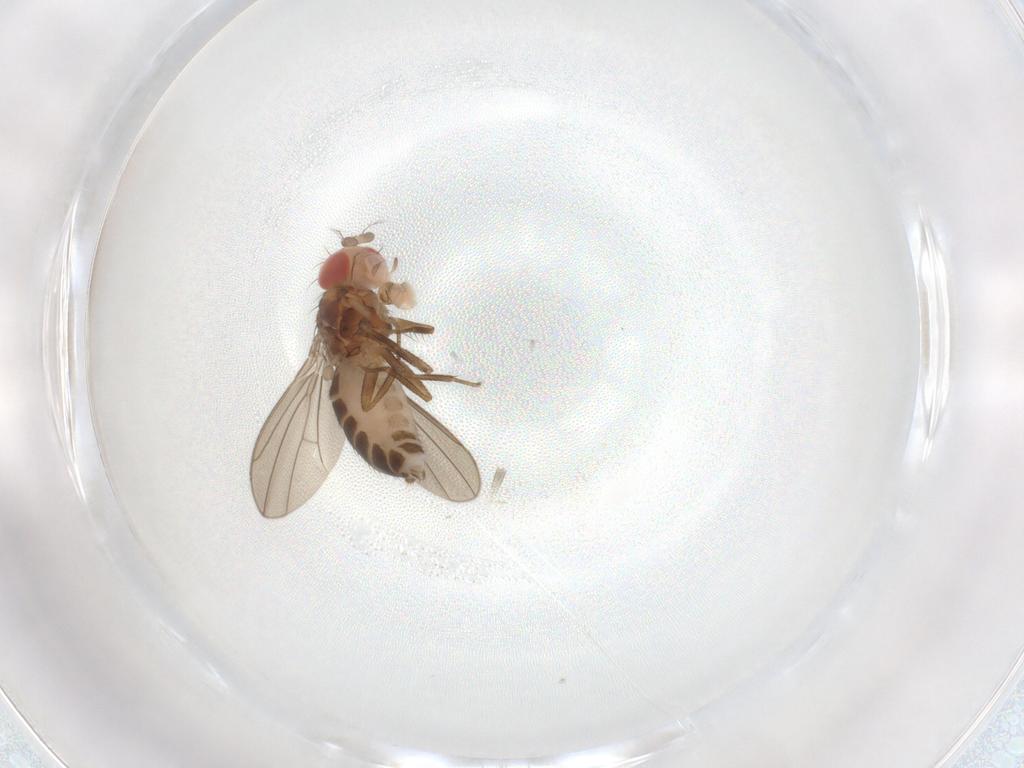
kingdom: Animalia
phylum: Arthropoda
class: Insecta
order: Diptera
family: Drosophilidae
